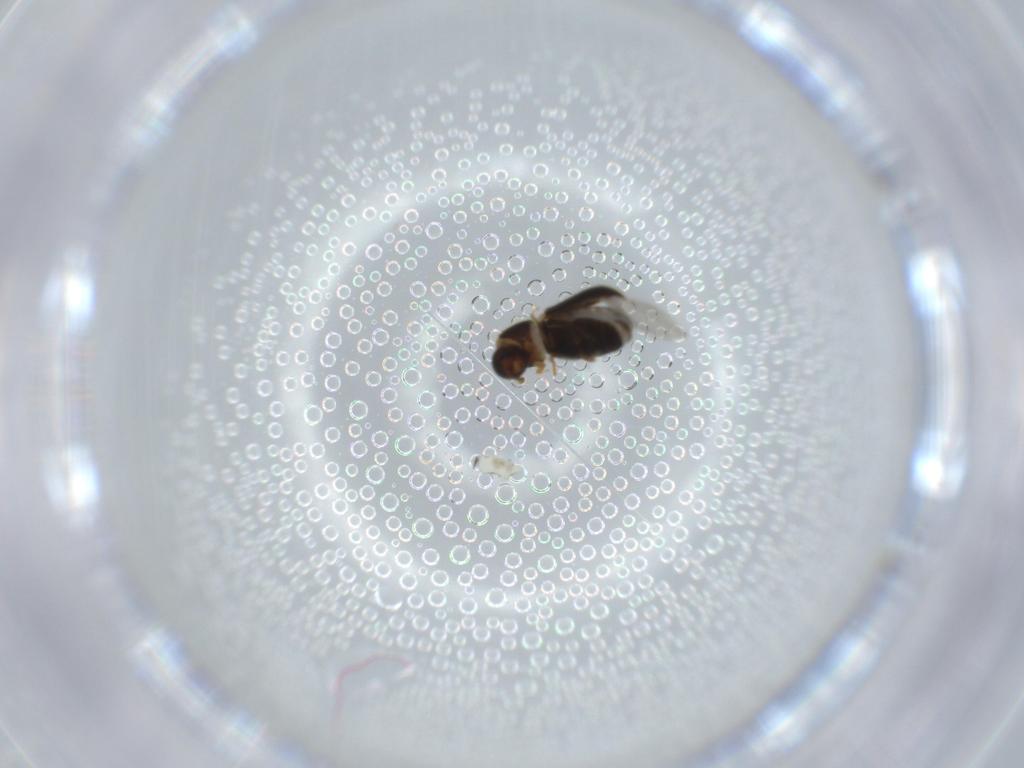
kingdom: Animalia
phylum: Arthropoda
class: Insecta
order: Coleoptera
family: Curculionidae
